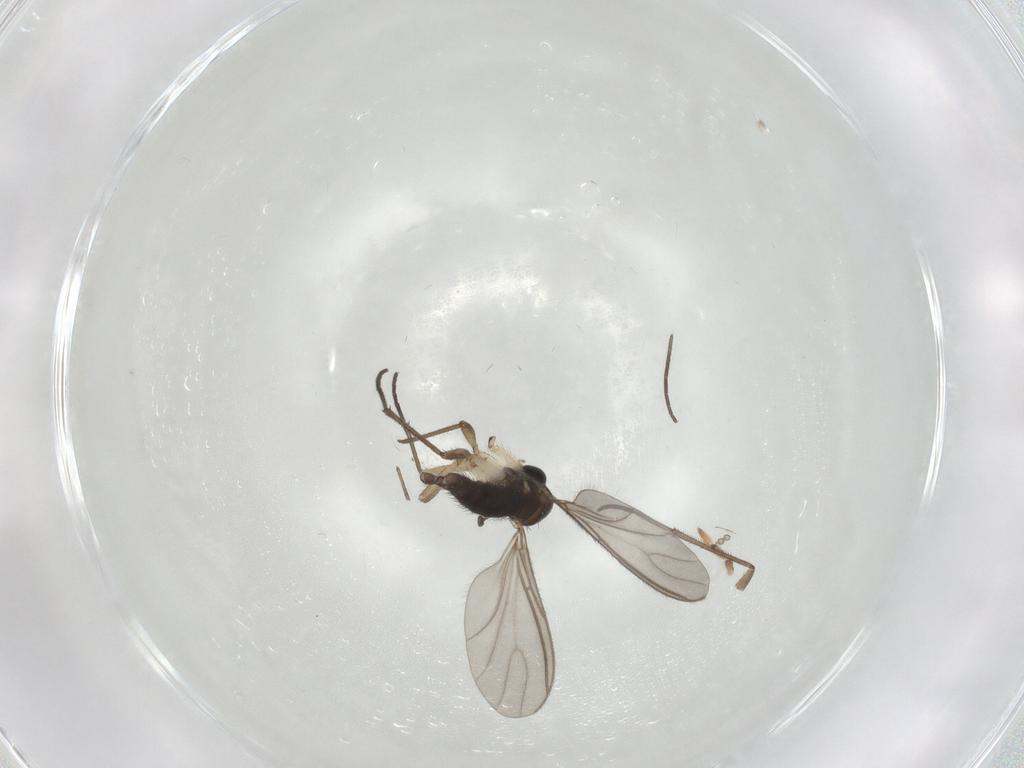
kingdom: Animalia
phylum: Arthropoda
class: Insecta
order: Diptera
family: Sciaridae
